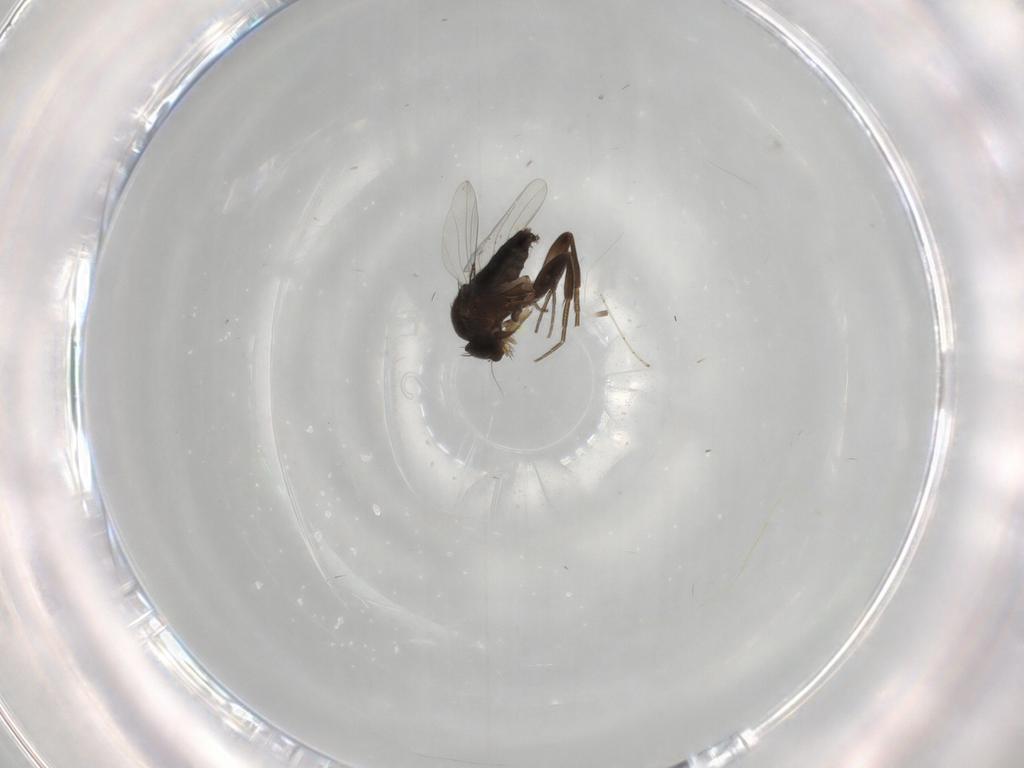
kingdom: Animalia
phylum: Arthropoda
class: Insecta
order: Diptera
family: Phoridae
